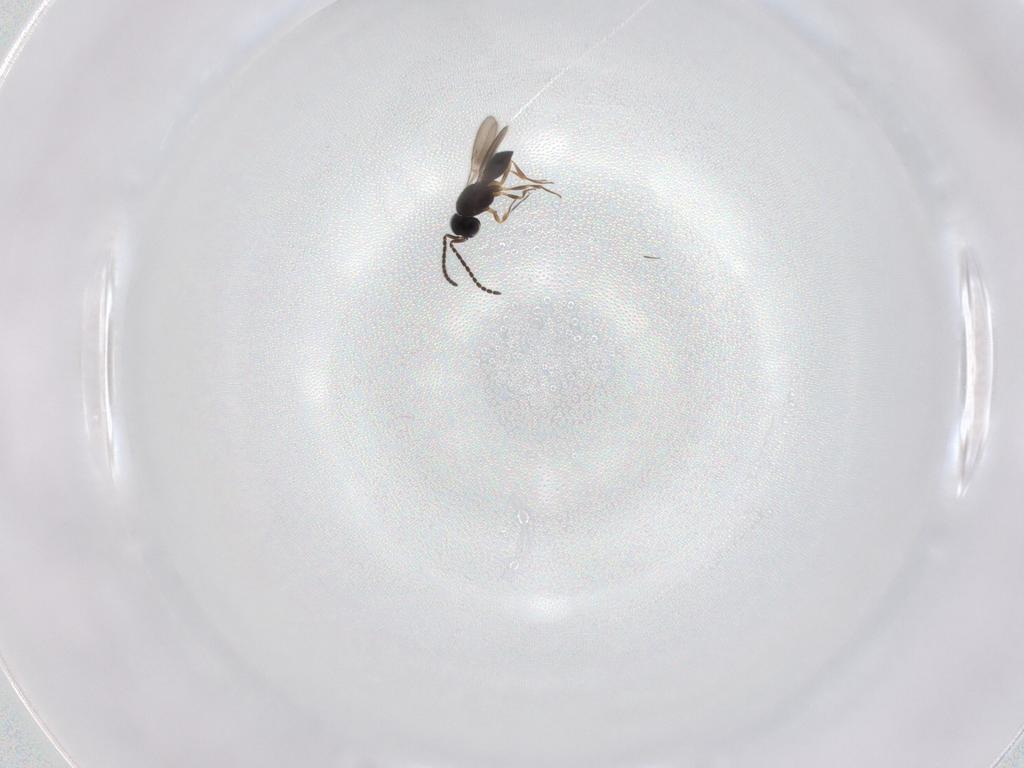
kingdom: Animalia
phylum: Arthropoda
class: Insecta
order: Hymenoptera
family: Scelionidae
